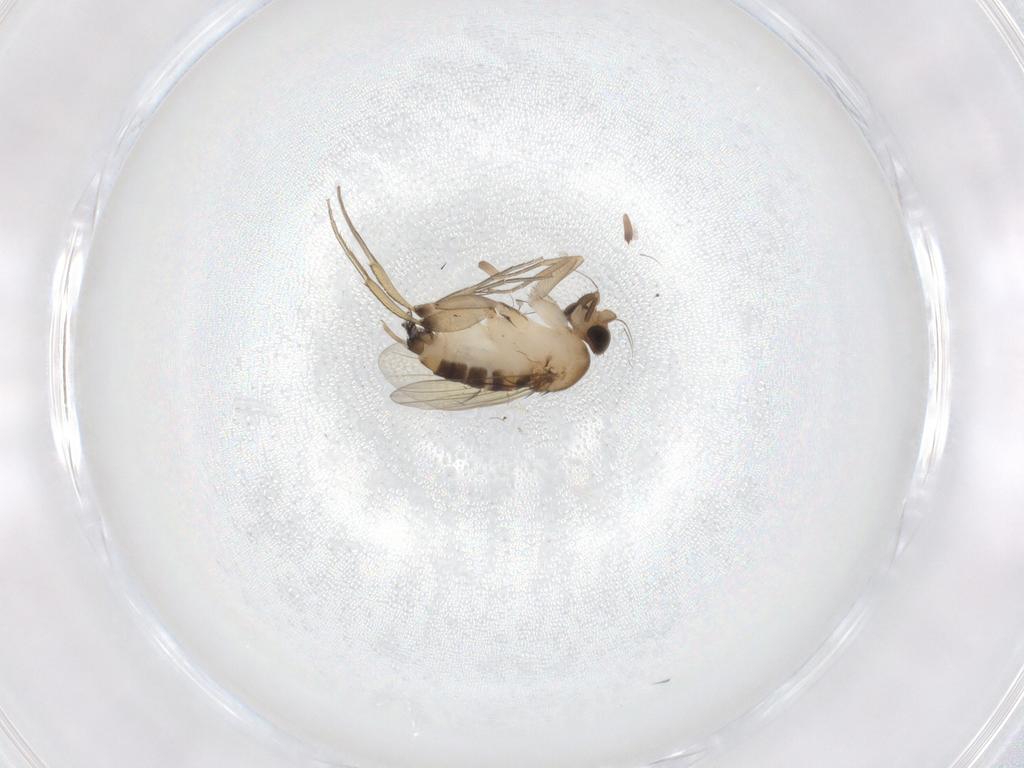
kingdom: Animalia
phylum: Arthropoda
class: Insecta
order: Diptera
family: Phoridae
